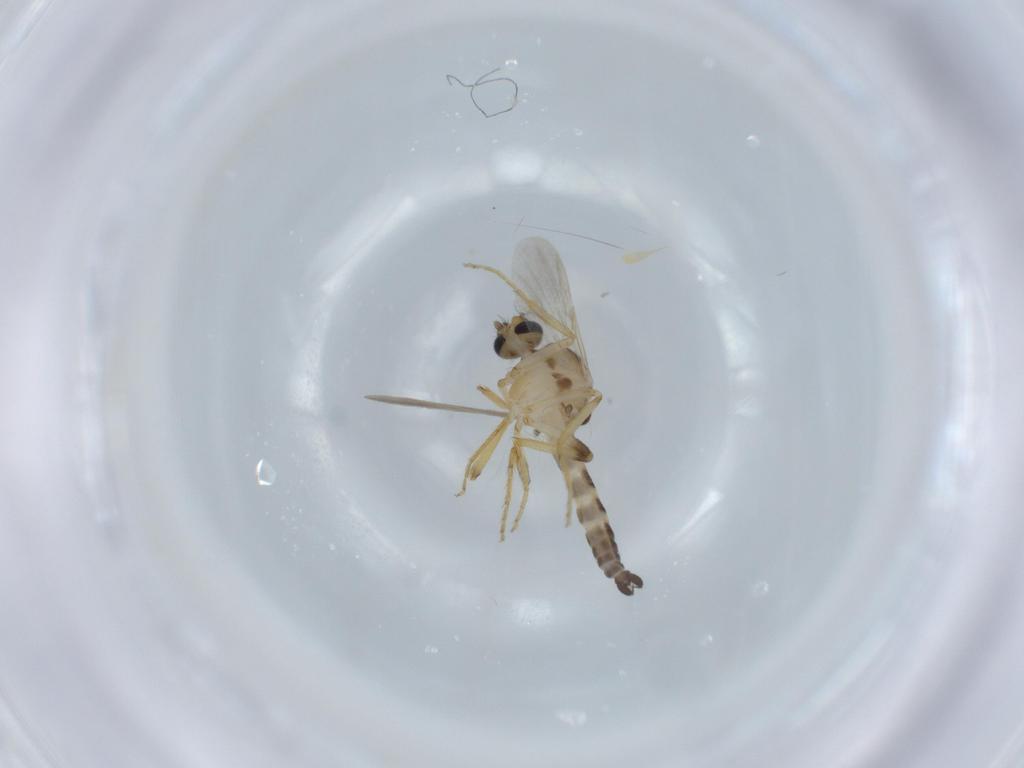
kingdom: Animalia
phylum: Arthropoda
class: Insecta
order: Diptera
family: Ceratopogonidae
